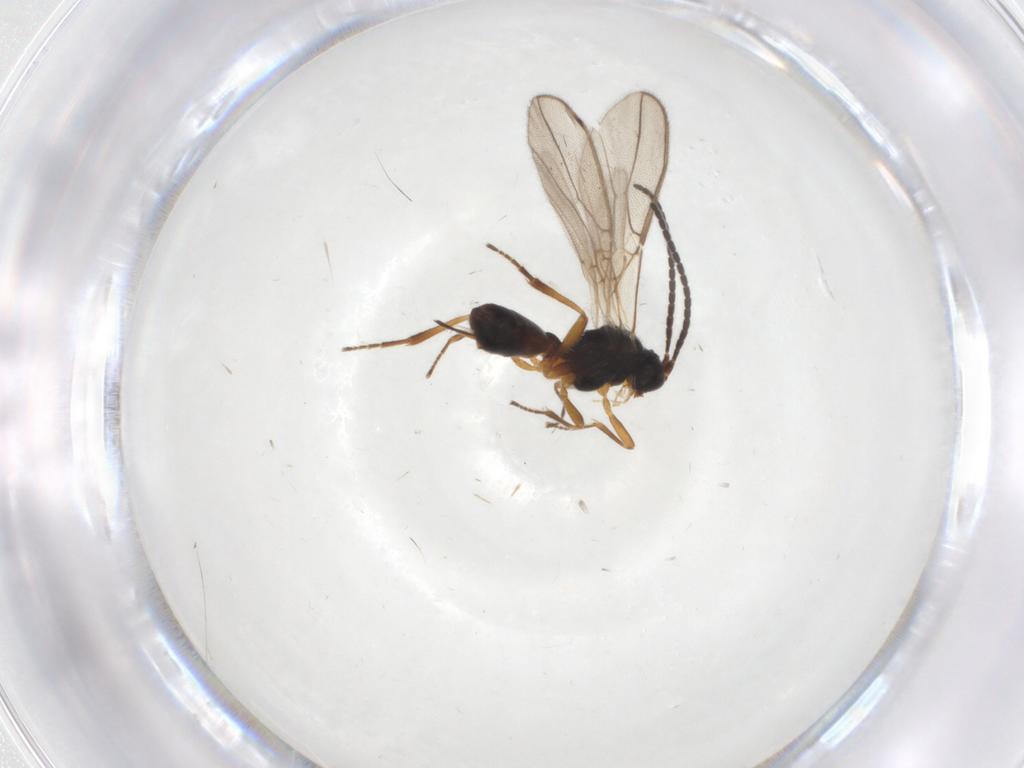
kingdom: Animalia
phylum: Arthropoda
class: Insecta
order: Hymenoptera
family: Braconidae
